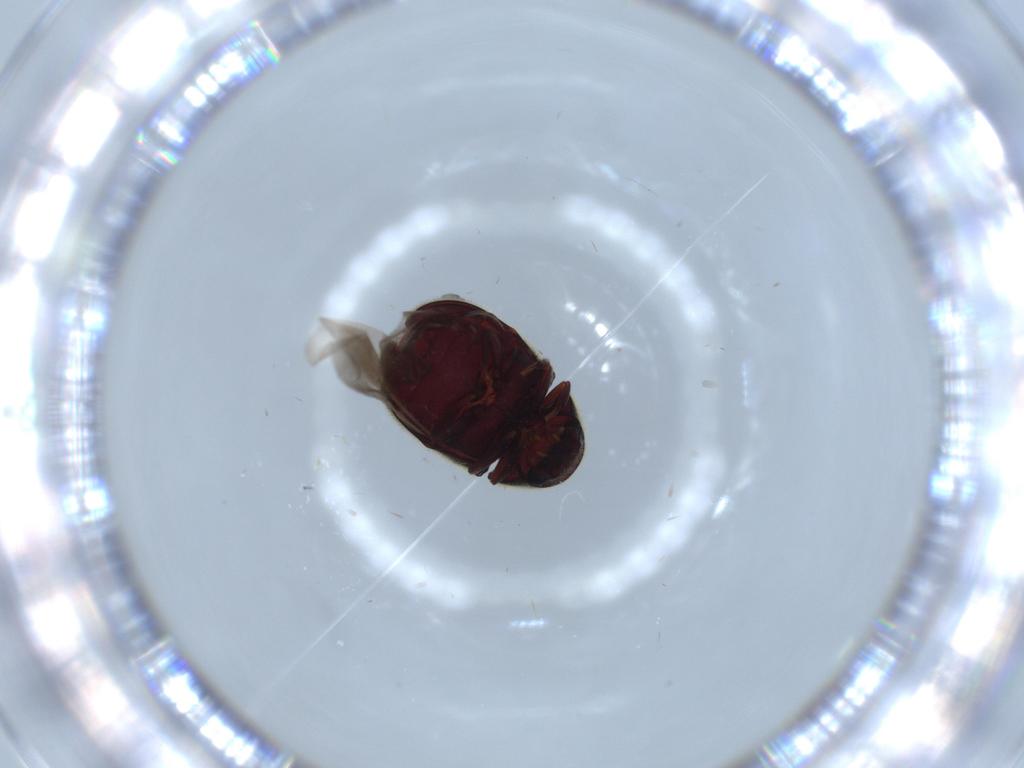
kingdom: Animalia
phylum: Arthropoda
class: Insecta
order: Coleoptera
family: Ptinidae
